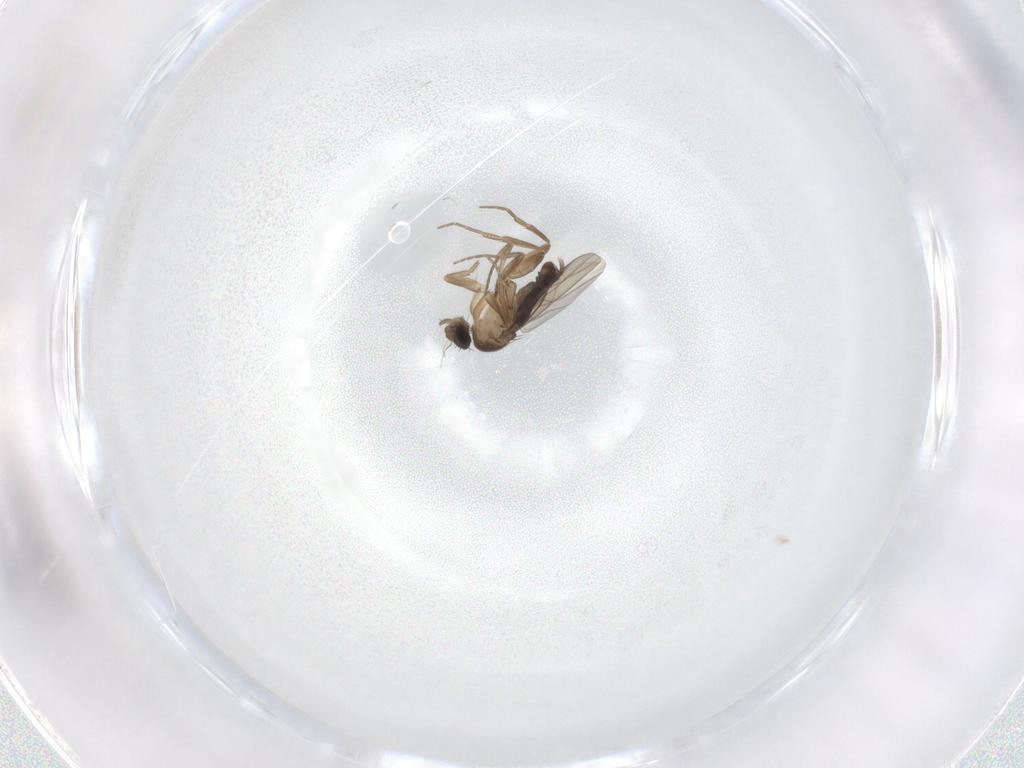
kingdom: Animalia
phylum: Arthropoda
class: Insecta
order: Diptera
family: Phoridae
